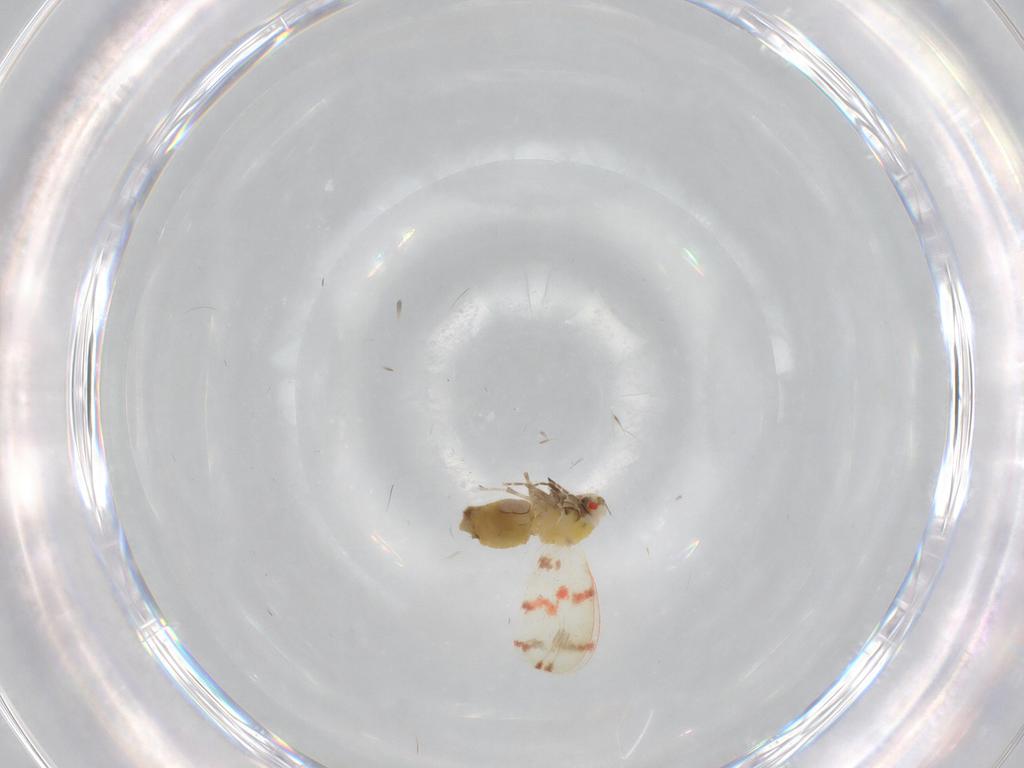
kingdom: Animalia
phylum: Arthropoda
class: Insecta
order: Hemiptera
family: Aleyrodidae
